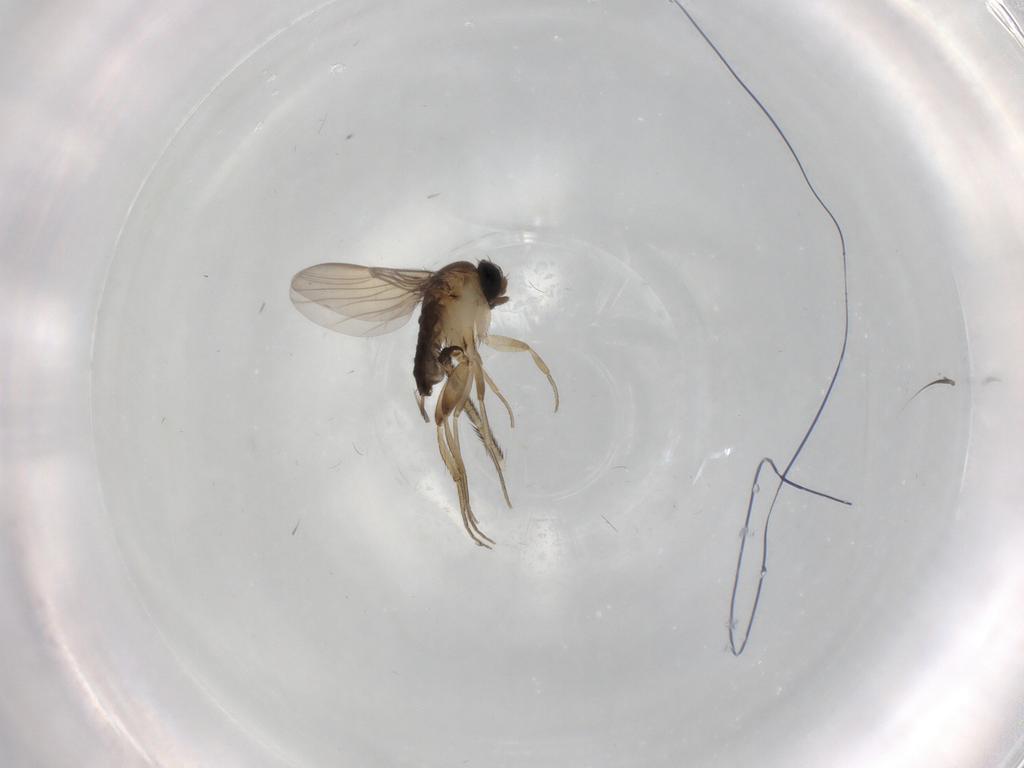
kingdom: Animalia
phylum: Arthropoda
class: Insecta
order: Diptera
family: Phoridae
